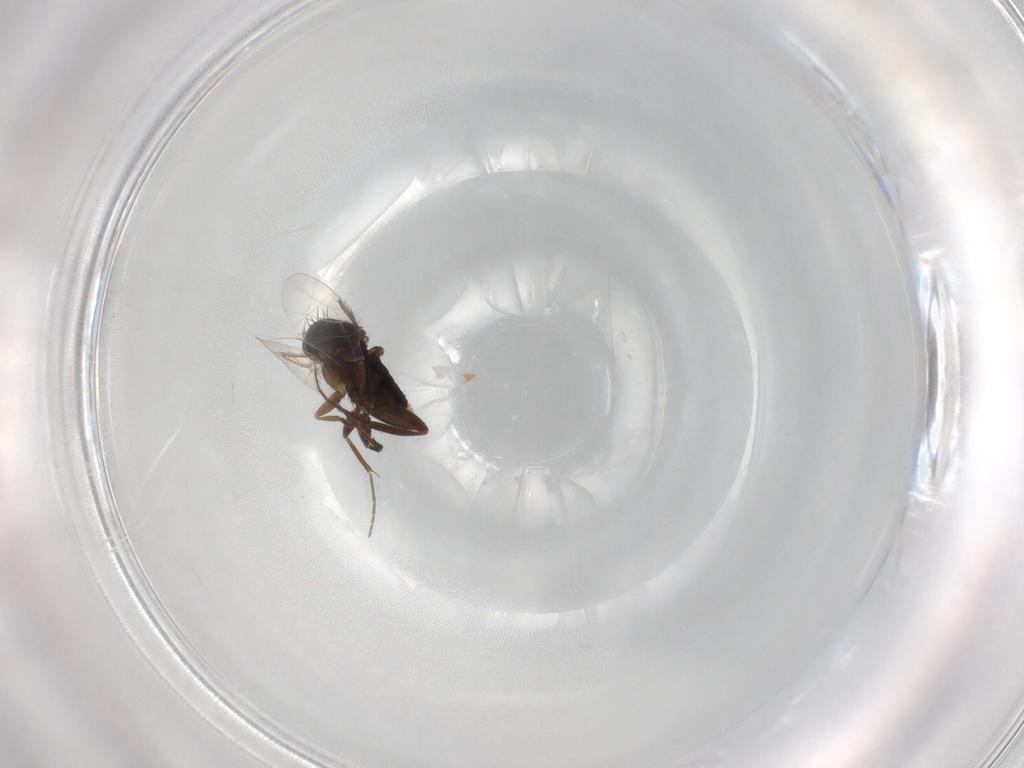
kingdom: Animalia
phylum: Arthropoda
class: Insecta
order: Diptera
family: Phoridae
